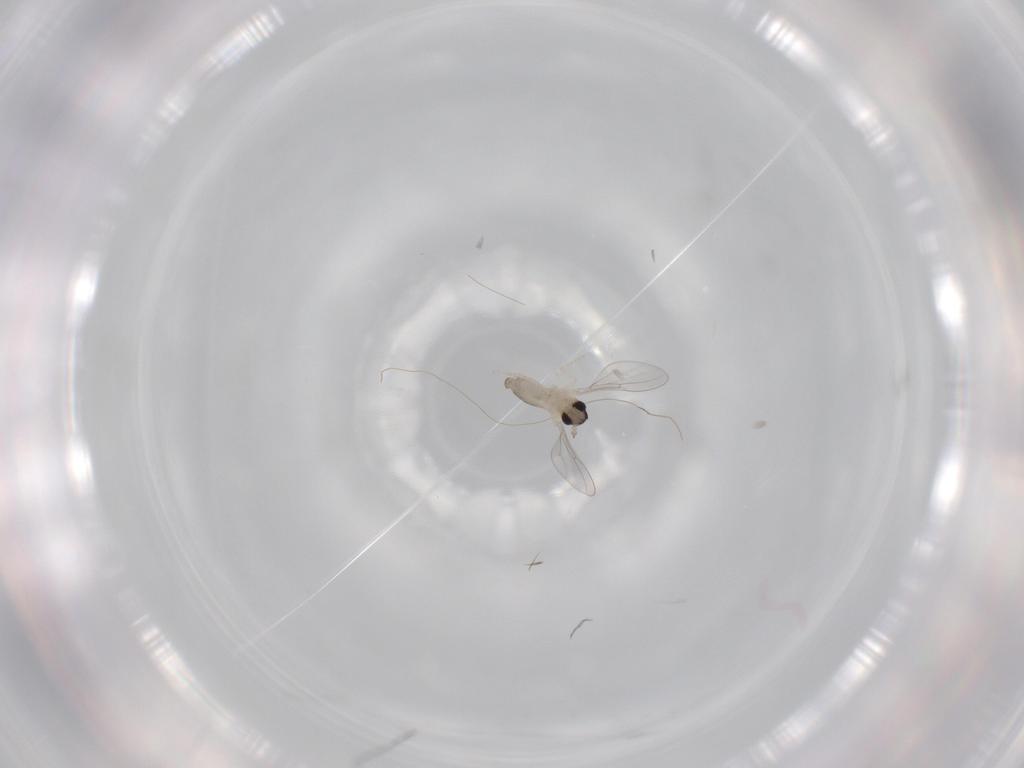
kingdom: Animalia
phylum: Arthropoda
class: Insecta
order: Diptera
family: Cecidomyiidae
